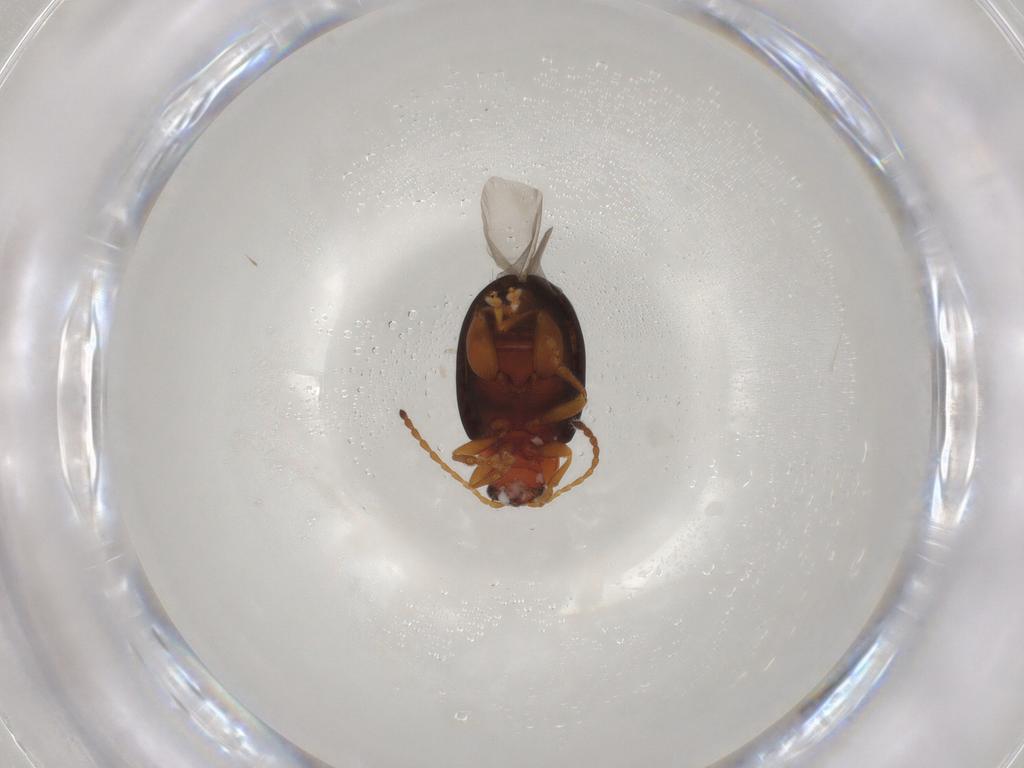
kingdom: Animalia
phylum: Arthropoda
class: Insecta
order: Coleoptera
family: Chrysomelidae
